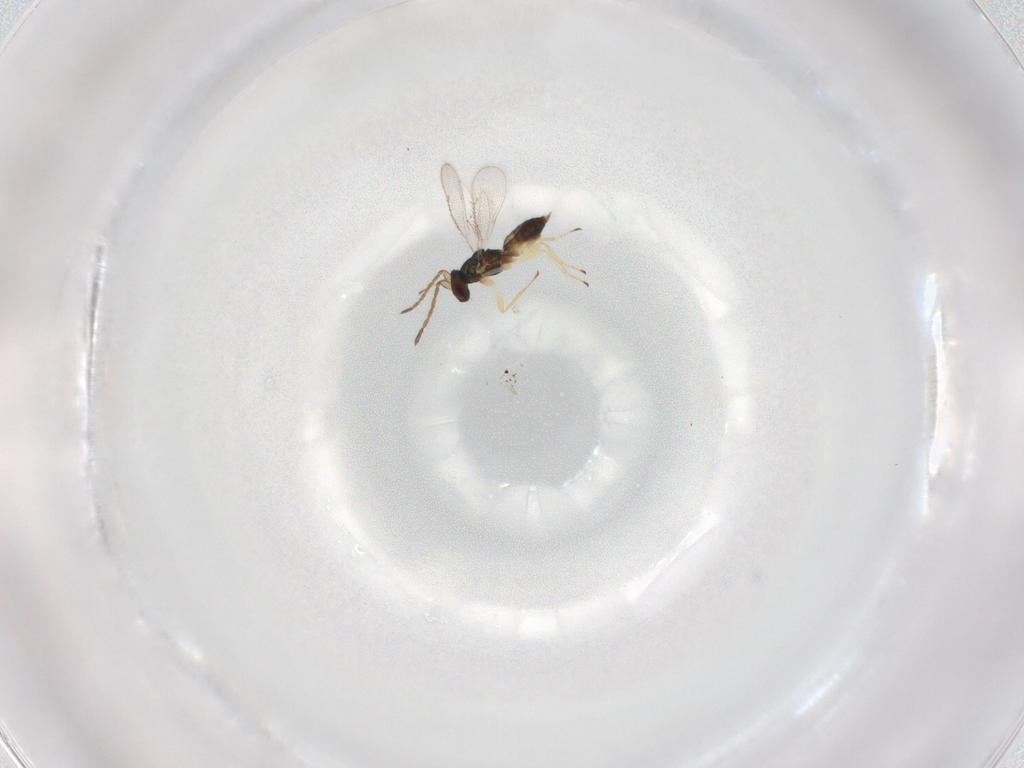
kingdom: Animalia
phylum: Arthropoda
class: Insecta
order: Hymenoptera
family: Eulophidae
